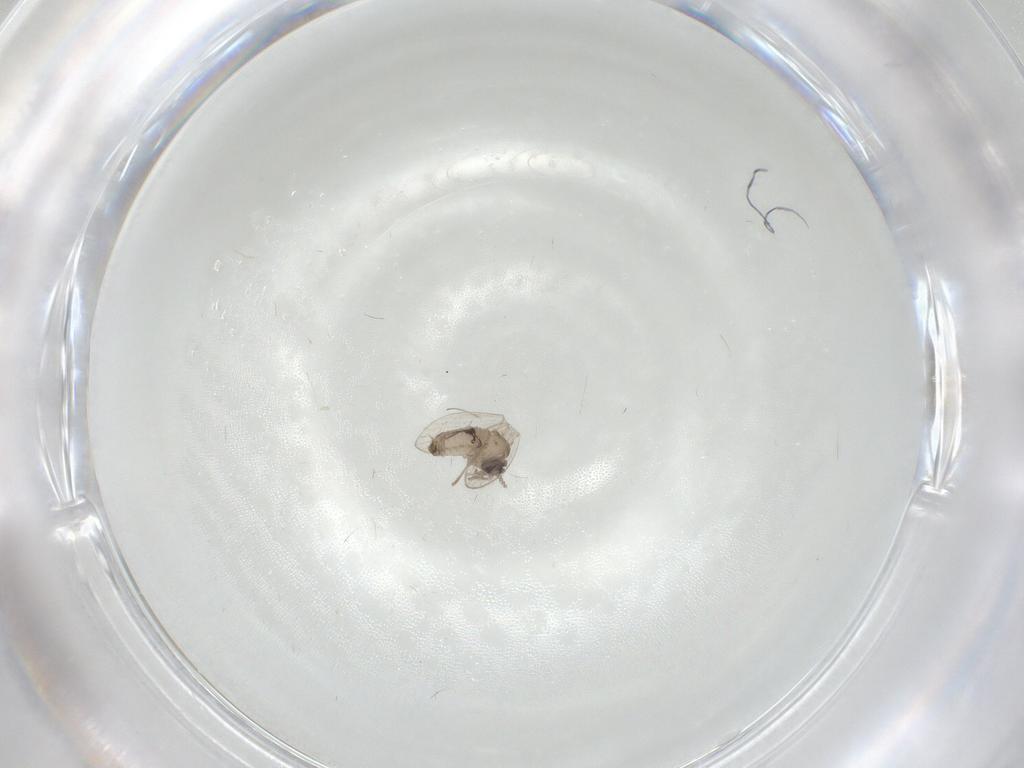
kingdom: Animalia
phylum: Arthropoda
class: Insecta
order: Diptera
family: Psychodidae
